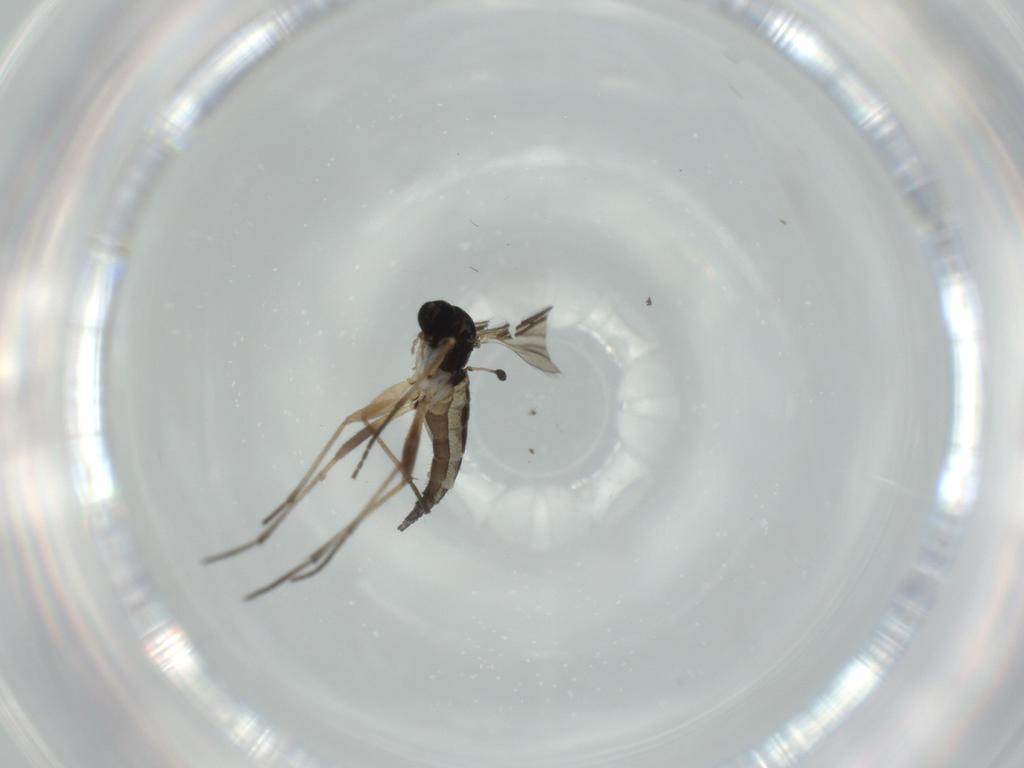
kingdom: Animalia
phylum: Arthropoda
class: Insecta
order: Diptera
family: Sciaridae
